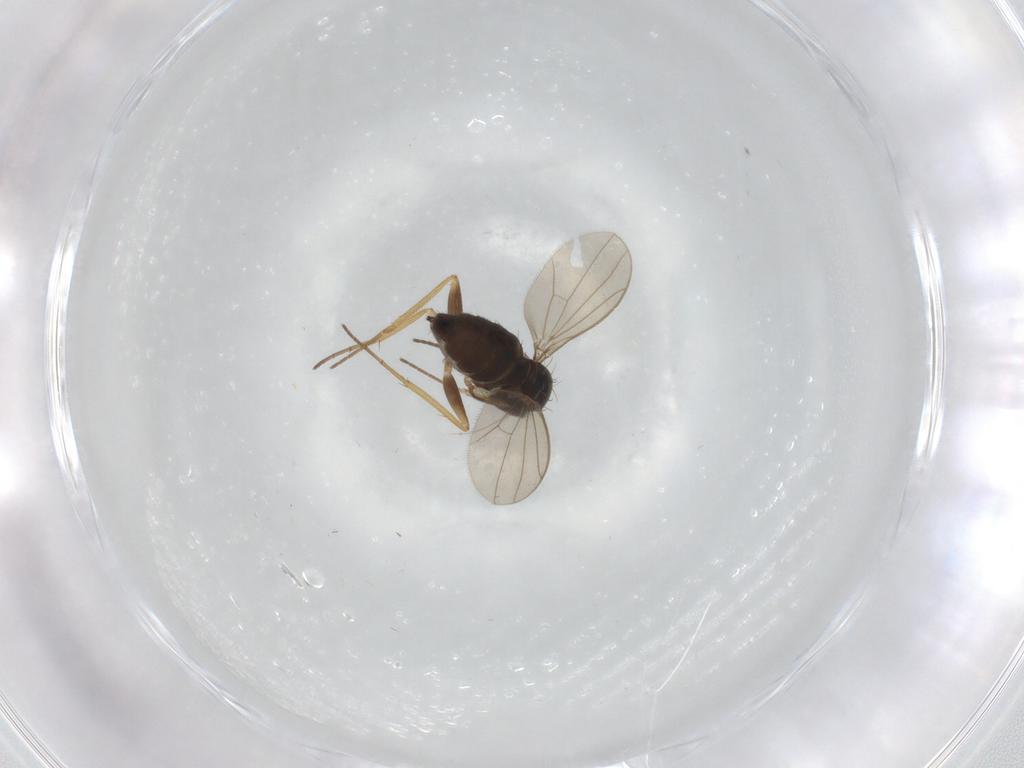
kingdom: Animalia
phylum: Arthropoda
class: Insecta
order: Diptera
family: Dolichopodidae
